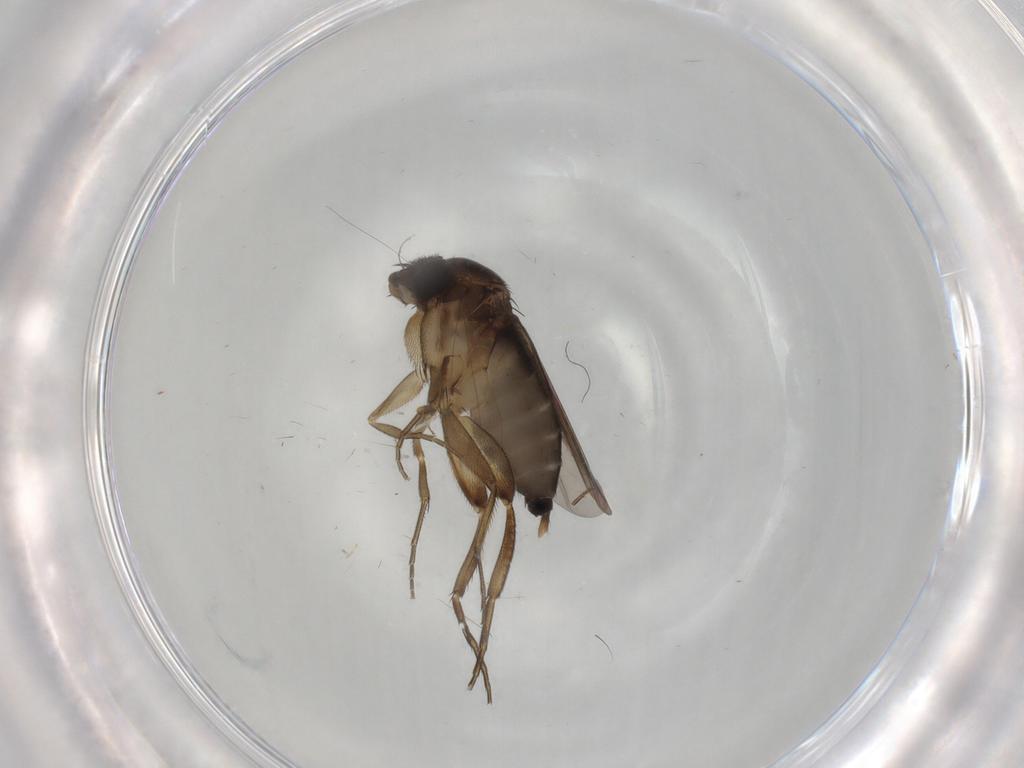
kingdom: Animalia
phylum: Arthropoda
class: Insecta
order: Diptera
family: Phoridae
